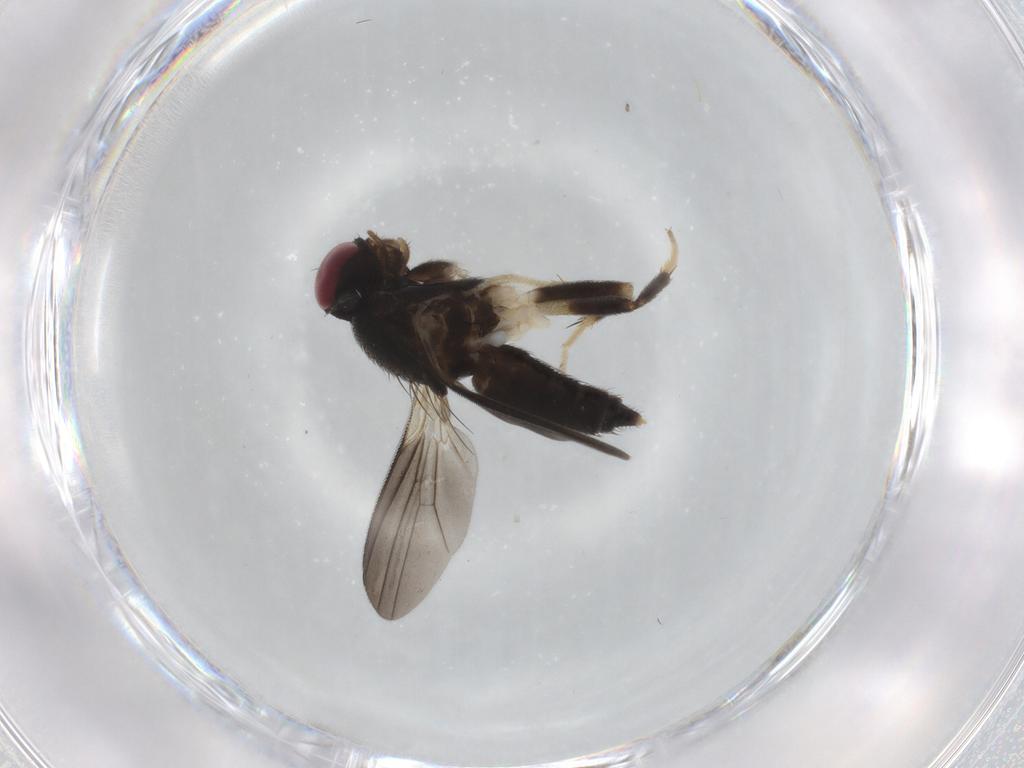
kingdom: Animalia
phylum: Arthropoda
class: Insecta
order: Diptera
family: Clusiidae
